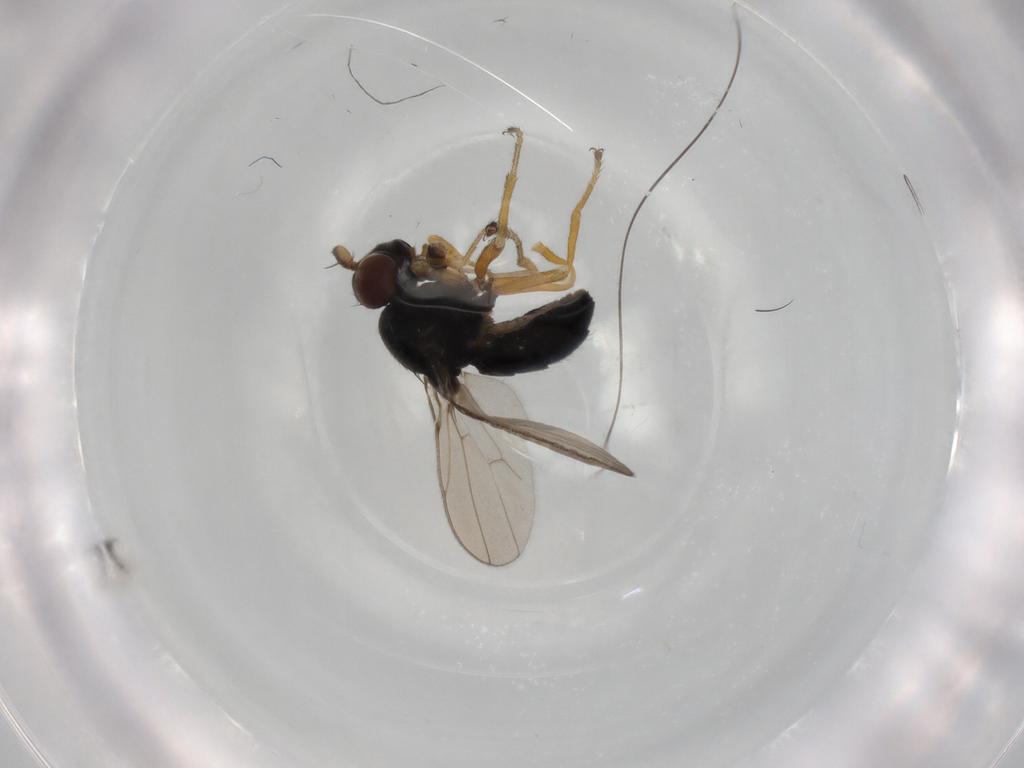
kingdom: Animalia
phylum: Arthropoda
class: Insecta
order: Diptera
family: Ephydridae
